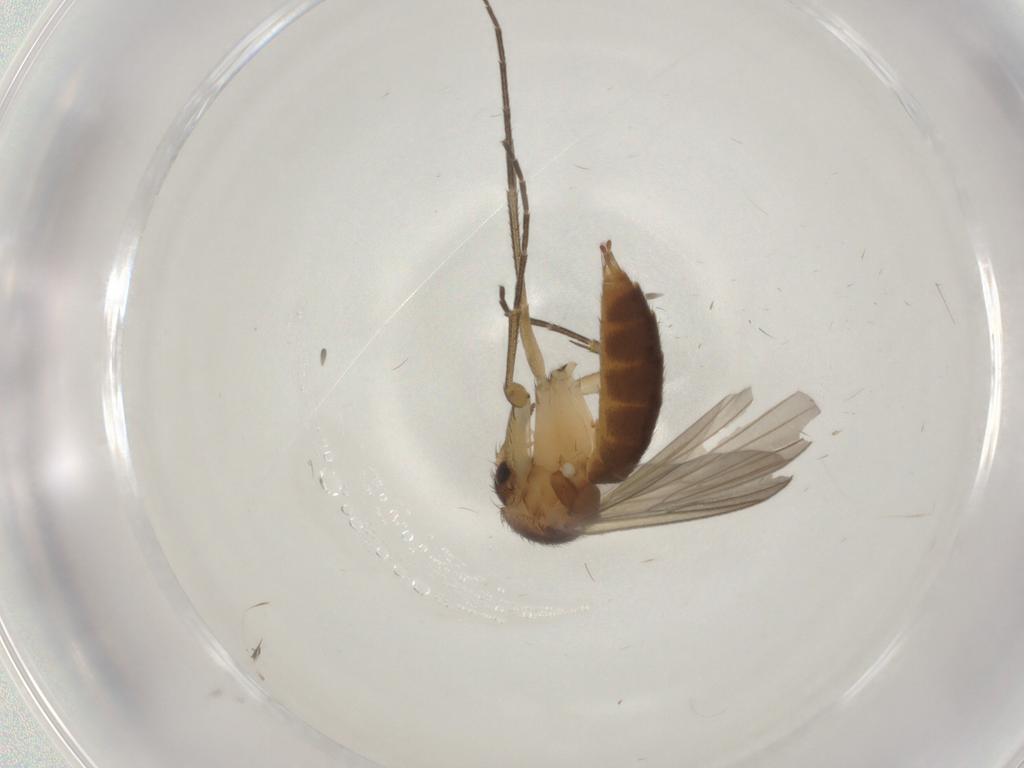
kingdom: Animalia
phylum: Arthropoda
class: Insecta
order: Diptera
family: Mycetophilidae
